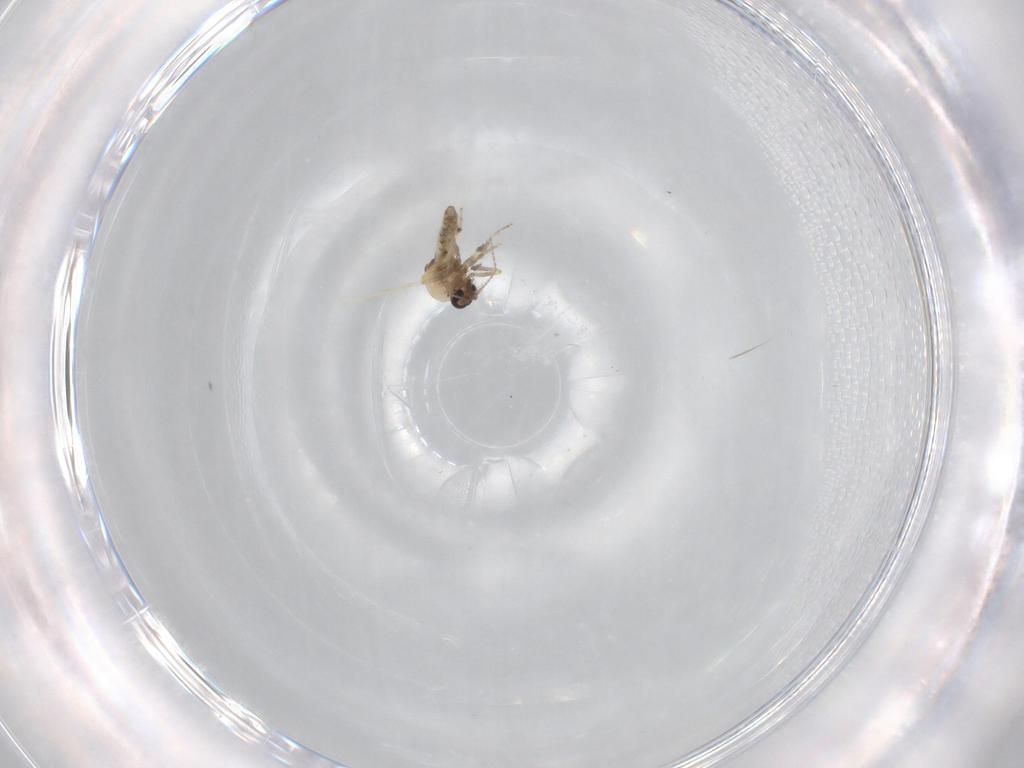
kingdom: Animalia
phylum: Arthropoda
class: Insecta
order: Diptera
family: Ceratopogonidae
